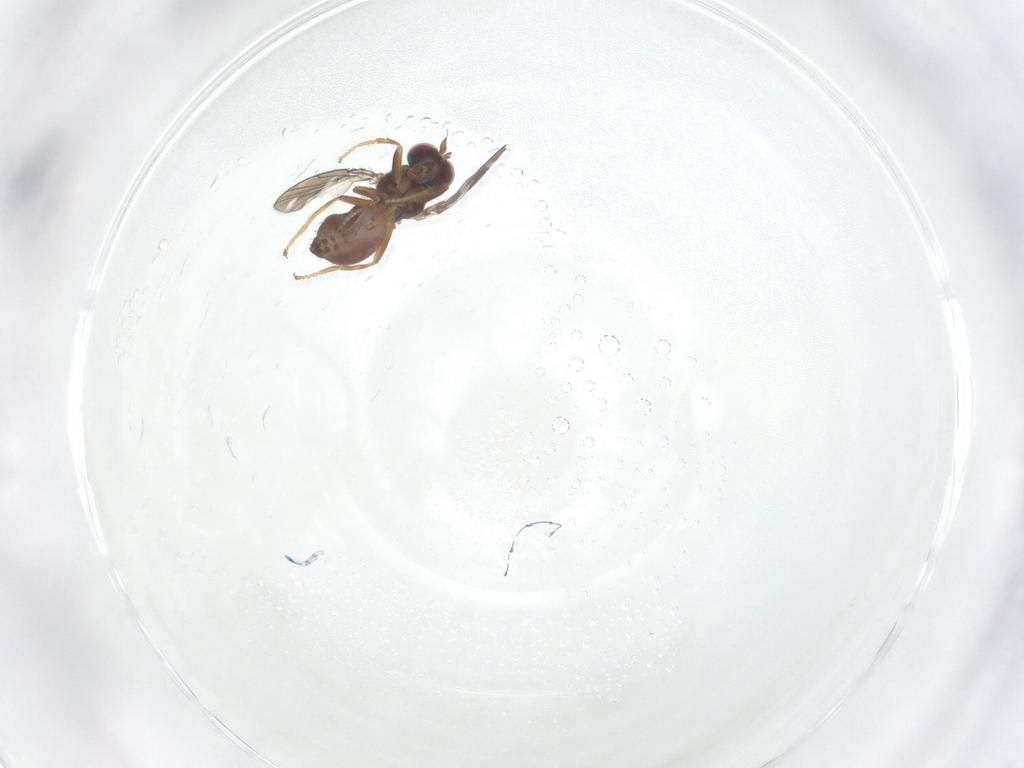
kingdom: Animalia
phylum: Arthropoda
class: Insecta
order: Diptera
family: Ephydridae
